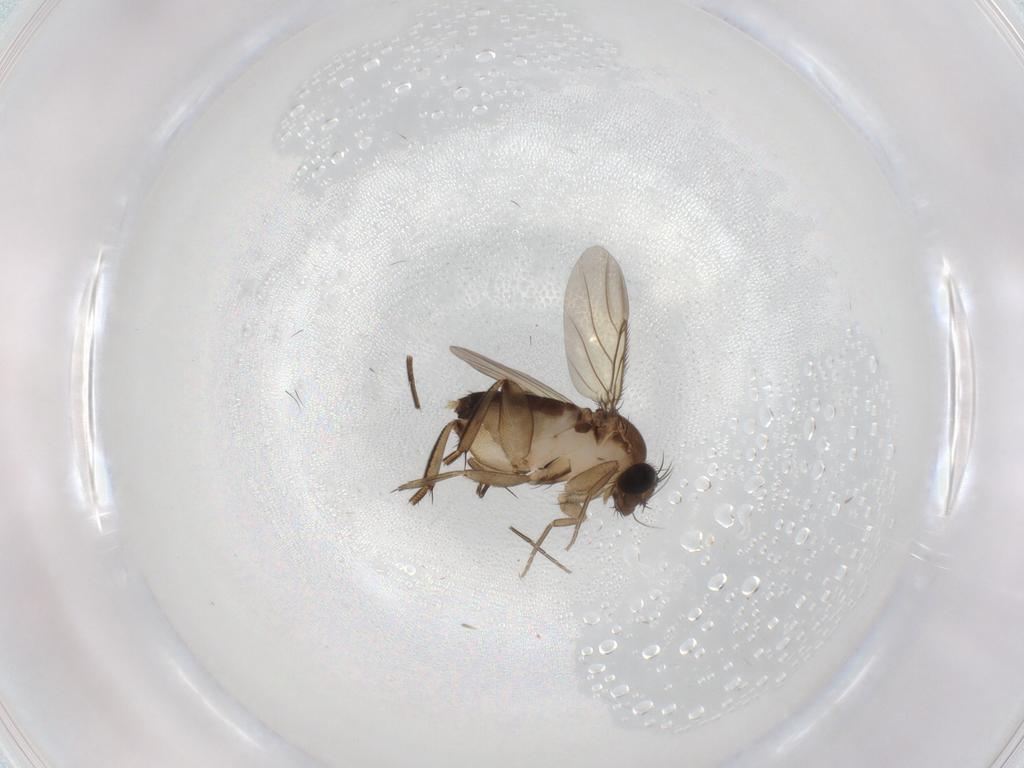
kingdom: Animalia
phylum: Arthropoda
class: Insecta
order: Diptera
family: Phoridae
